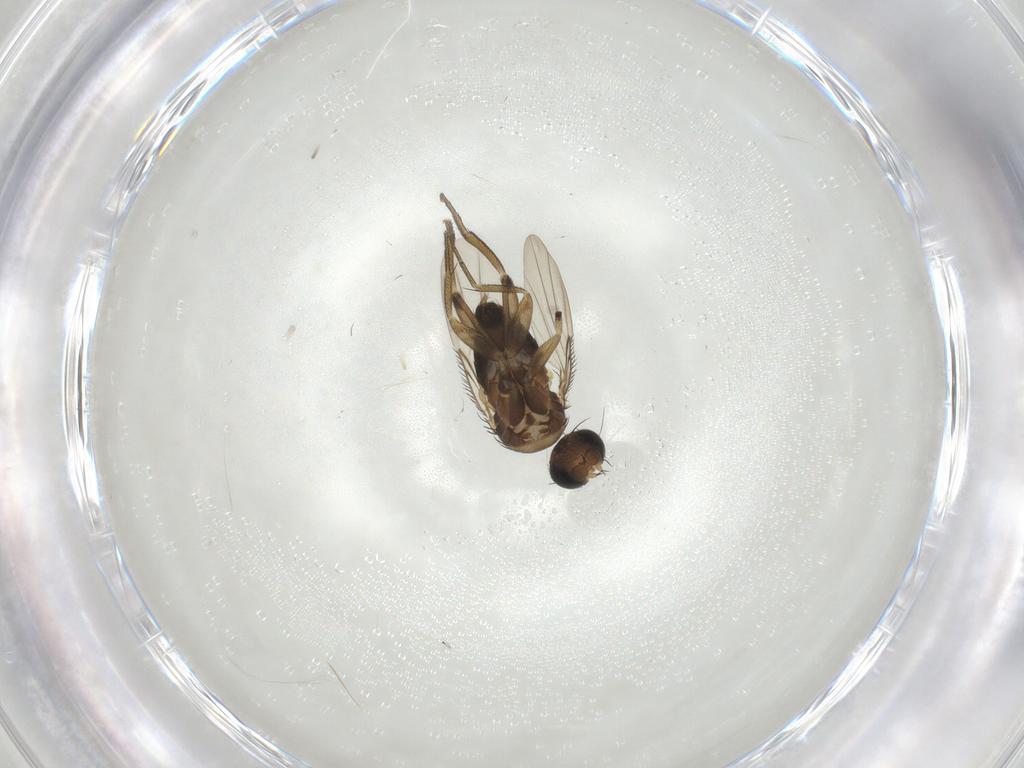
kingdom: Animalia
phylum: Arthropoda
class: Insecta
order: Diptera
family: Phoridae
